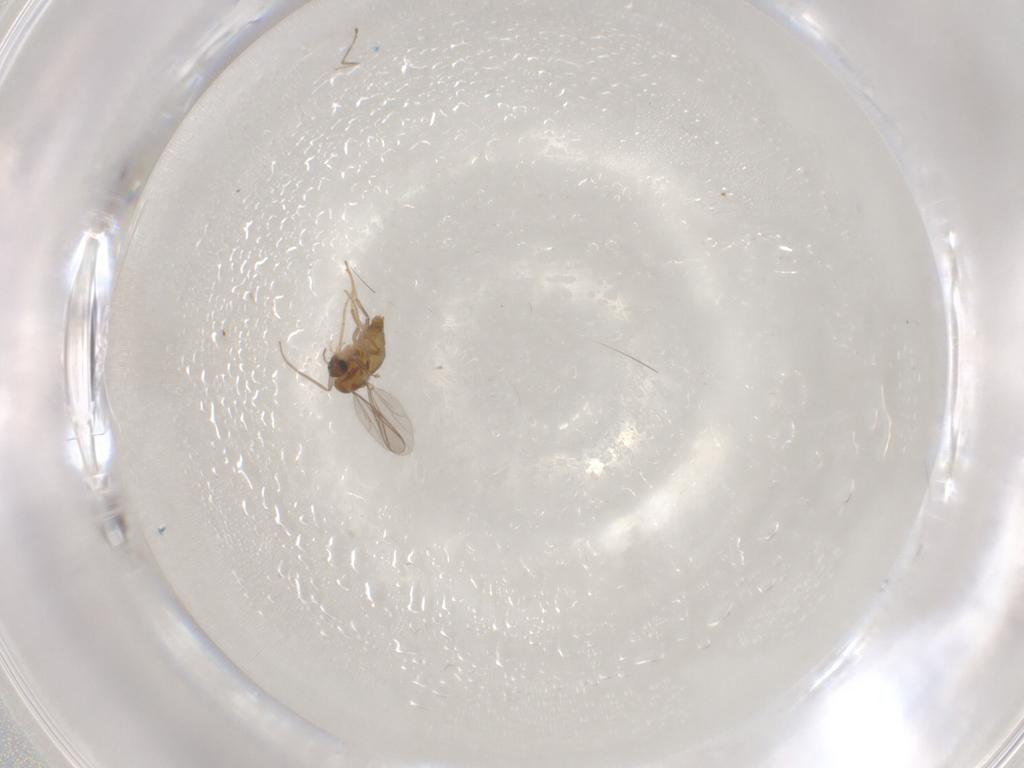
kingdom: Animalia
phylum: Arthropoda
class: Insecta
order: Diptera
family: Chironomidae
